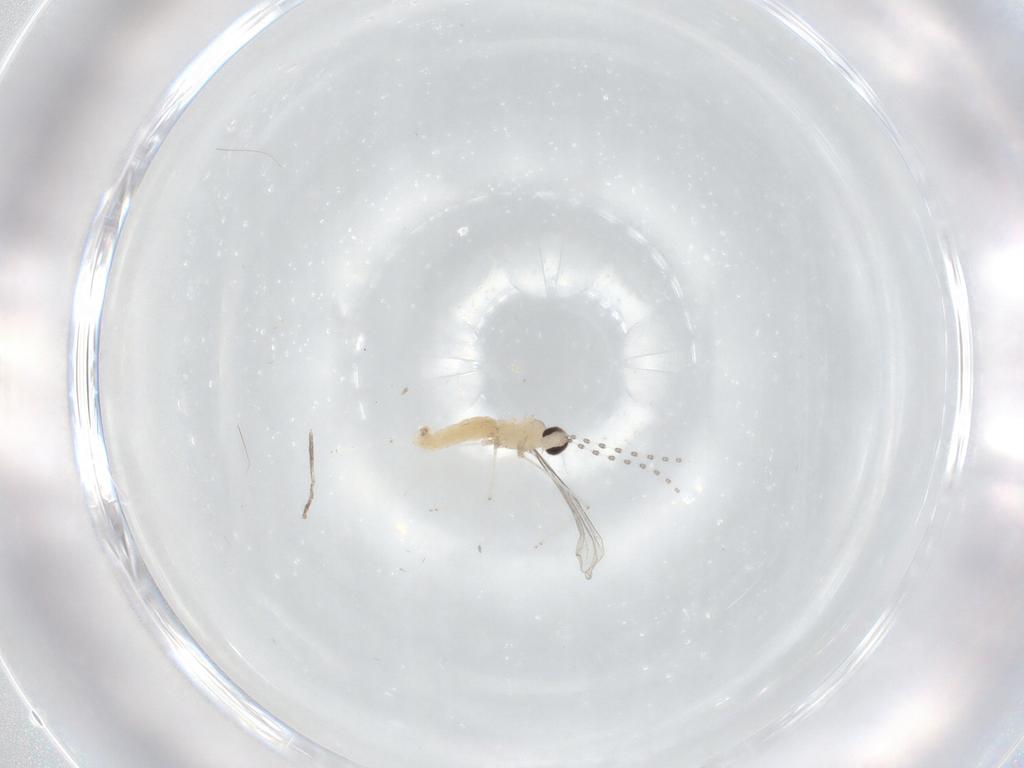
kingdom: Animalia
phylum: Arthropoda
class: Insecta
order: Diptera
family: Cecidomyiidae
